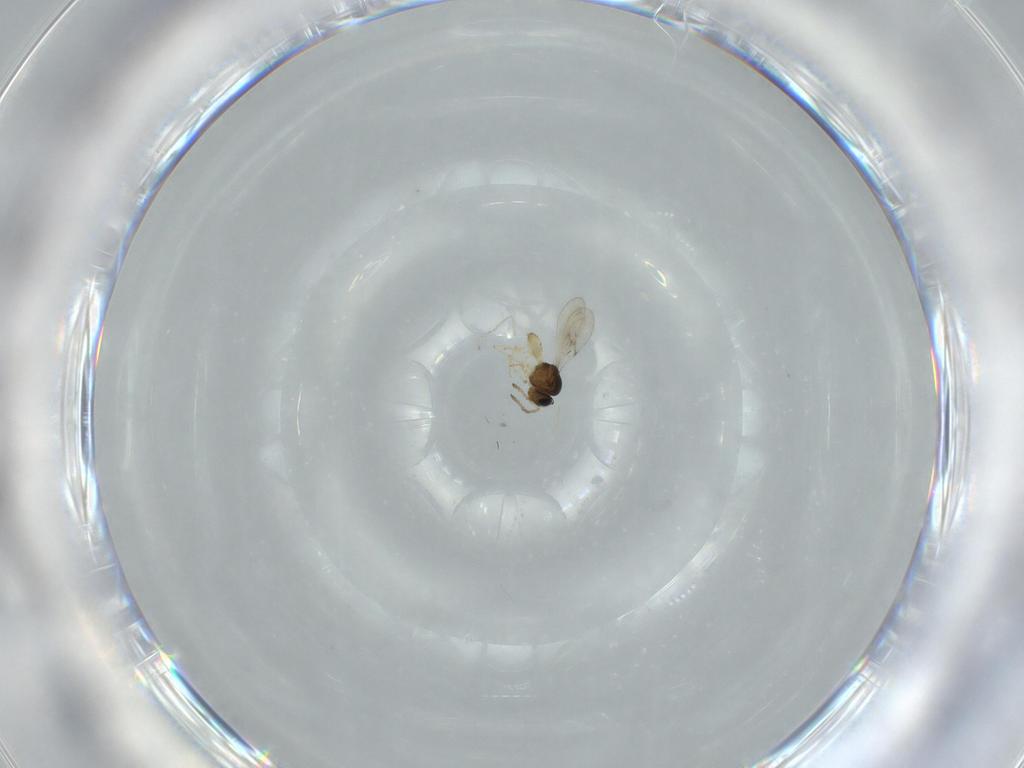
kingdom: Animalia
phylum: Arthropoda
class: Insecta
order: Hymenoptera
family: Scelionidae
